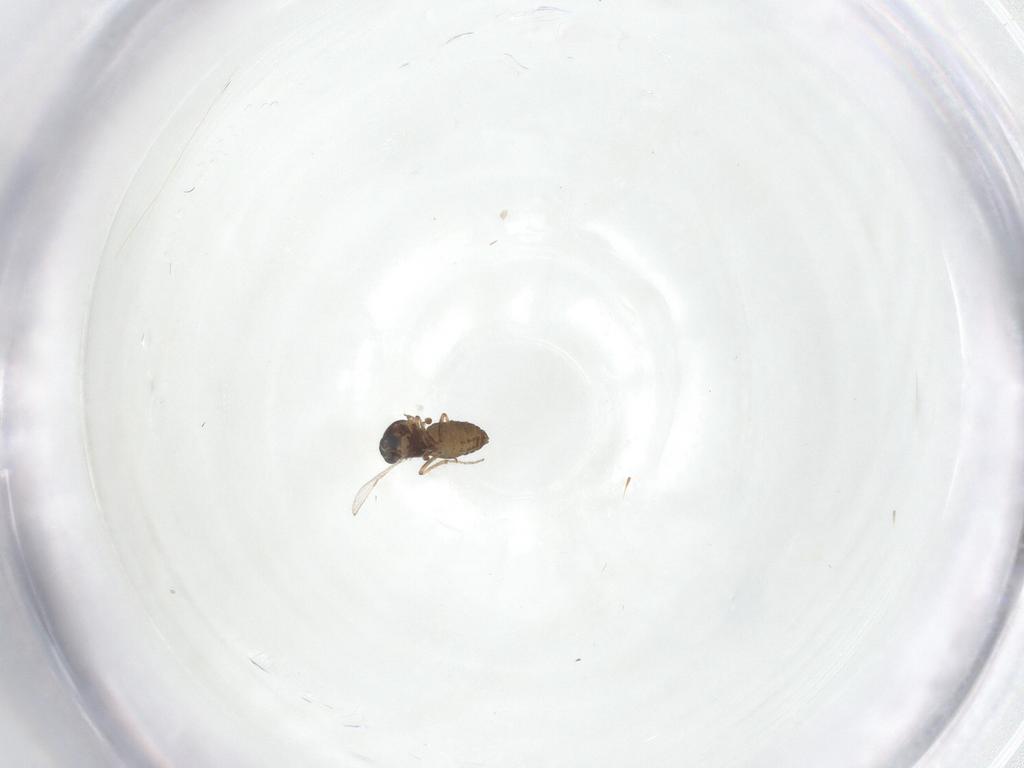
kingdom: Animalia
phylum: Arthropoda
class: Insecta
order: Diptera
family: Ceratopogonidae
